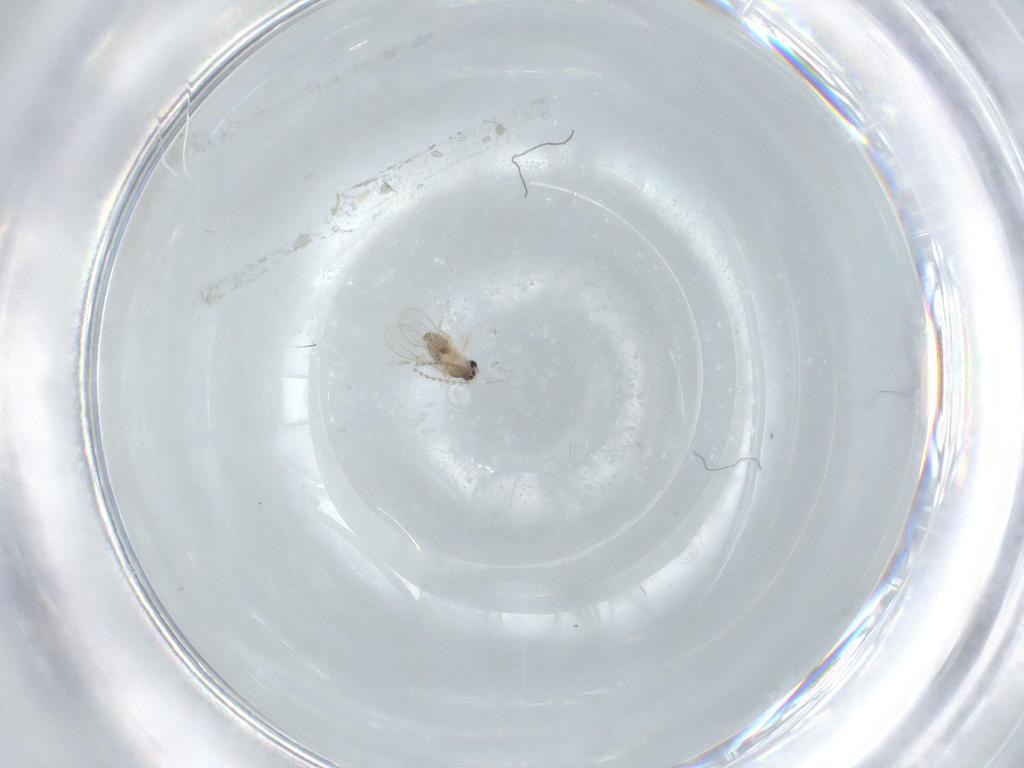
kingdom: Animalia
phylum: Arthropoda
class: Insecta
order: Diptera
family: Cecidomyiidae
